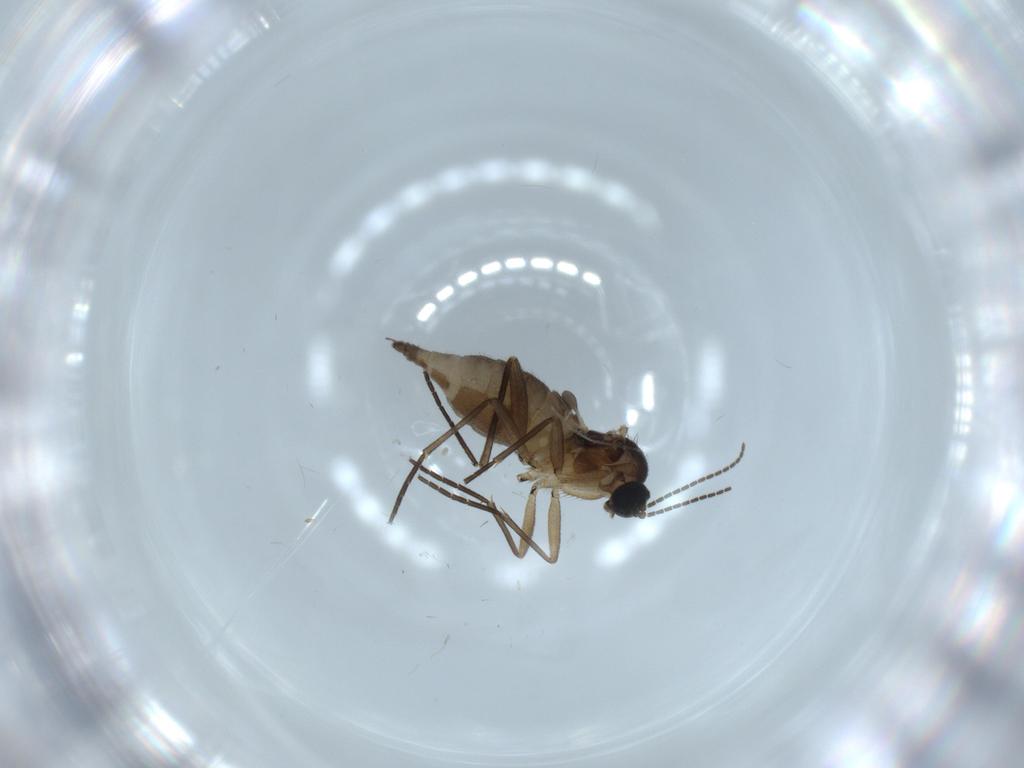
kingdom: Animalia
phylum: Arthropoda
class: Insecta
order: Diptera
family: Sciaridae
